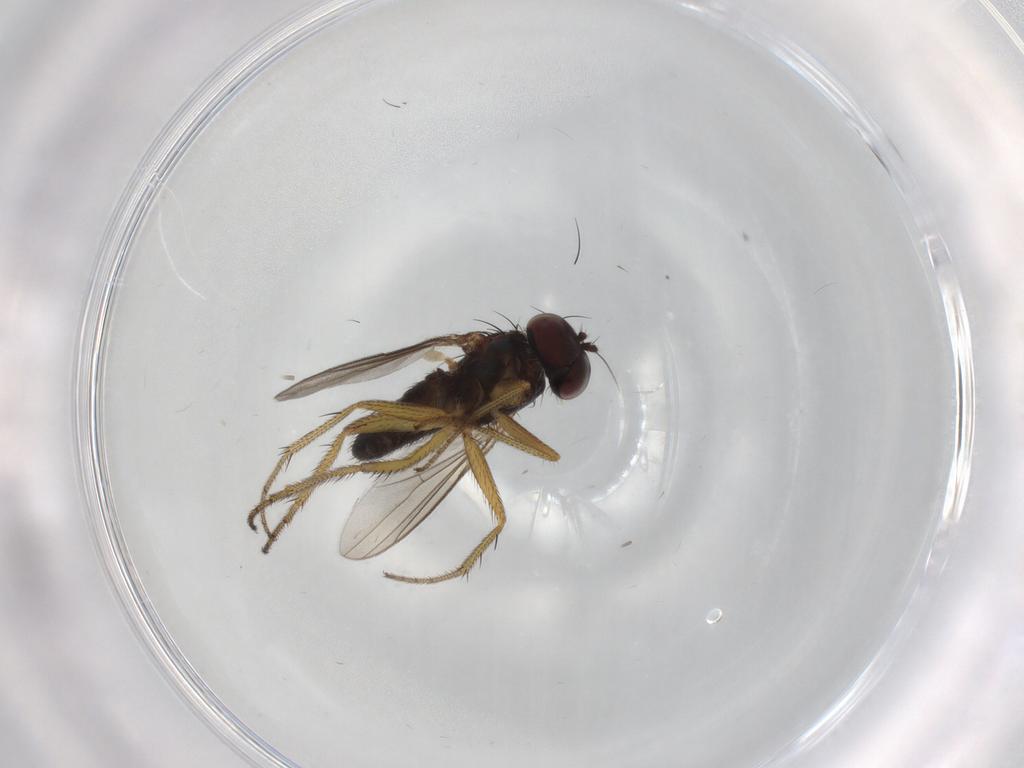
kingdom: Animalia
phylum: Arthropoda
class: Insecta
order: Diptera
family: Dolichopodidae
